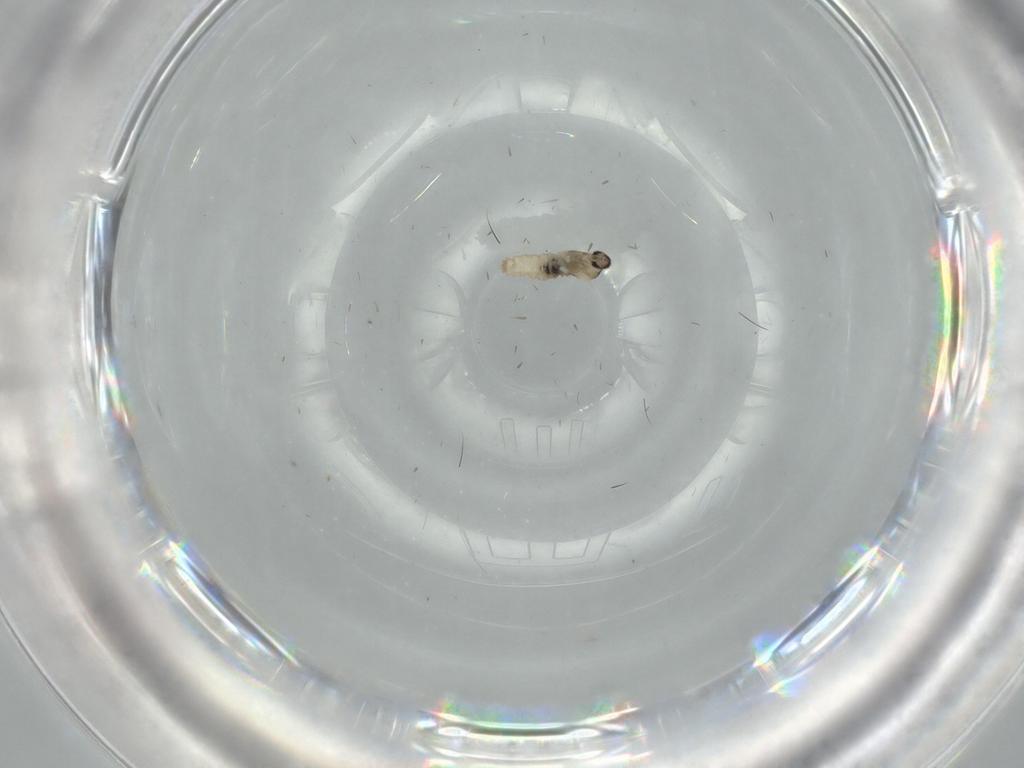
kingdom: Animalia
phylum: Arthropoda
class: Insecta
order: Diptera
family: Cecidomyiidae
